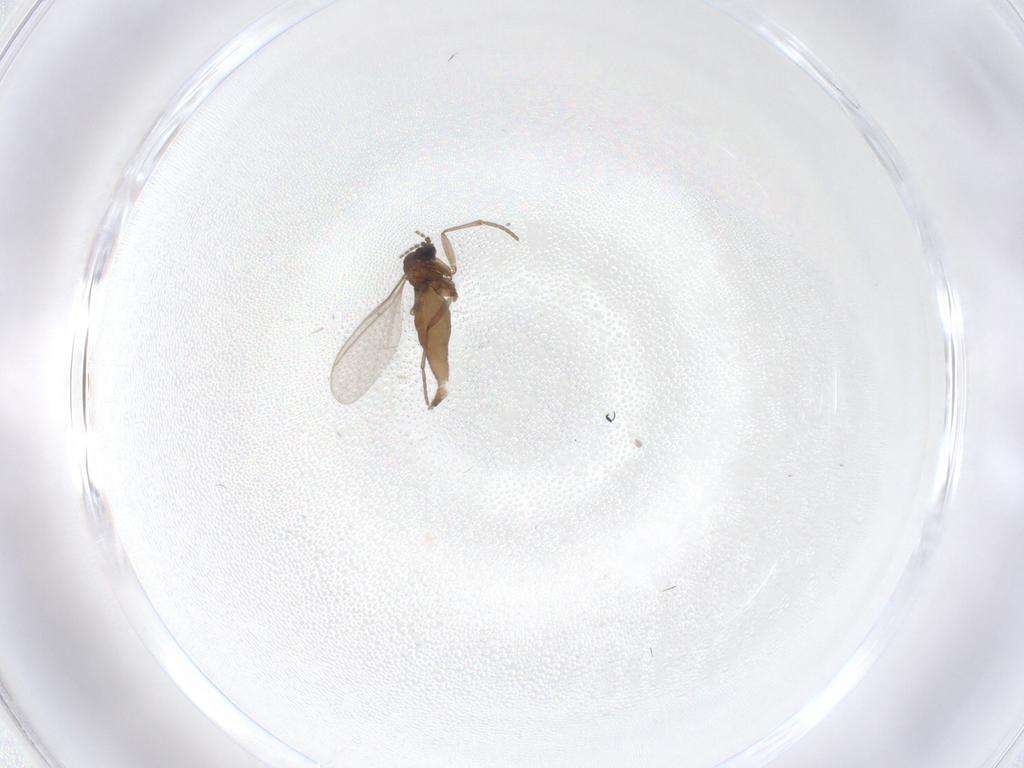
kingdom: Animalia
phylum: Arthropoda
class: Insecta
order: Diptera
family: Sciaridae
